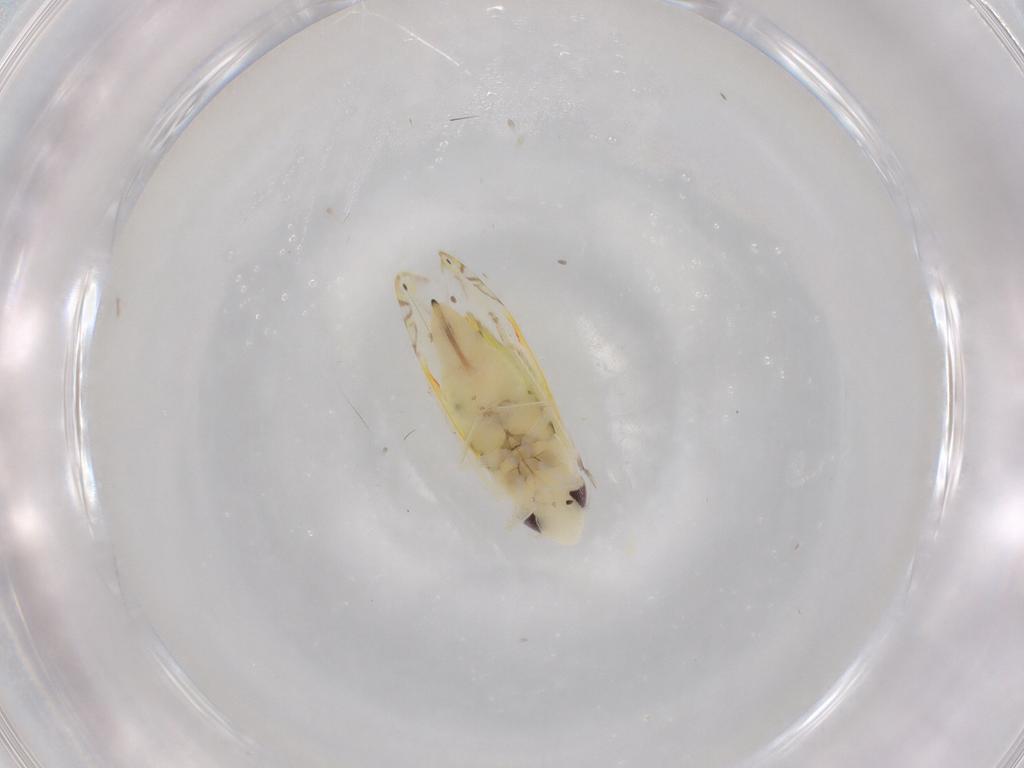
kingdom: Animalia
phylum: Arthropoda
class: Insecta
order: Hemiptera
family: Aleyrodidae
